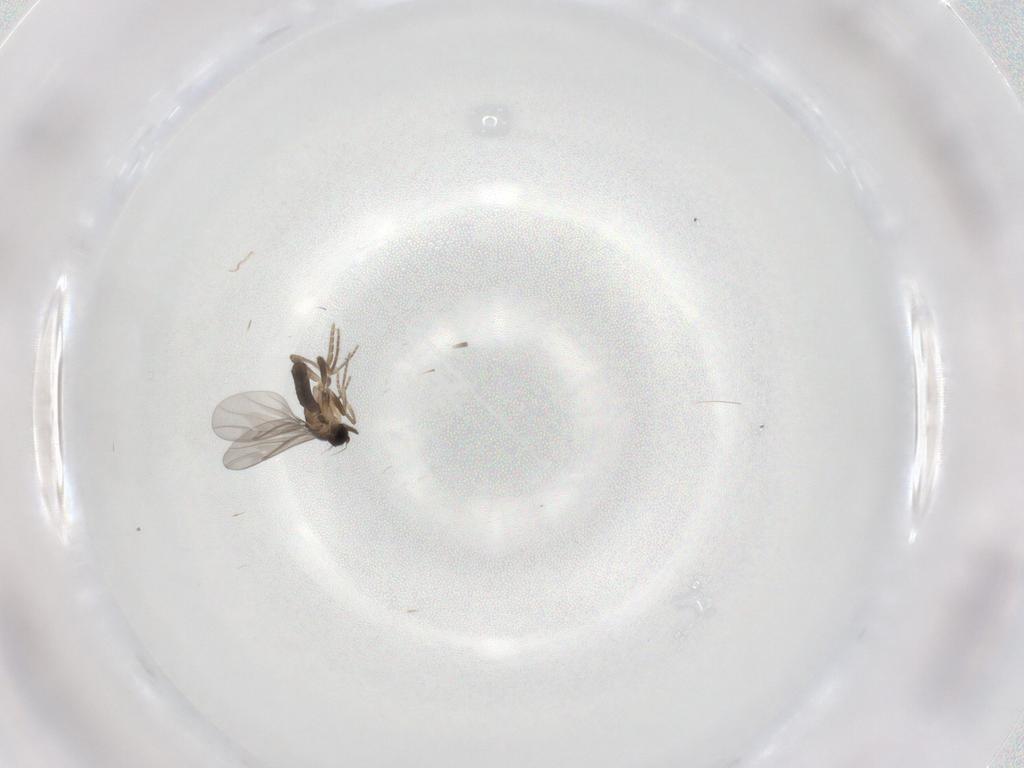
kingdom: Animalia
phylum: Arthropoda
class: Insecta
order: Diptera
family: Phoridae
